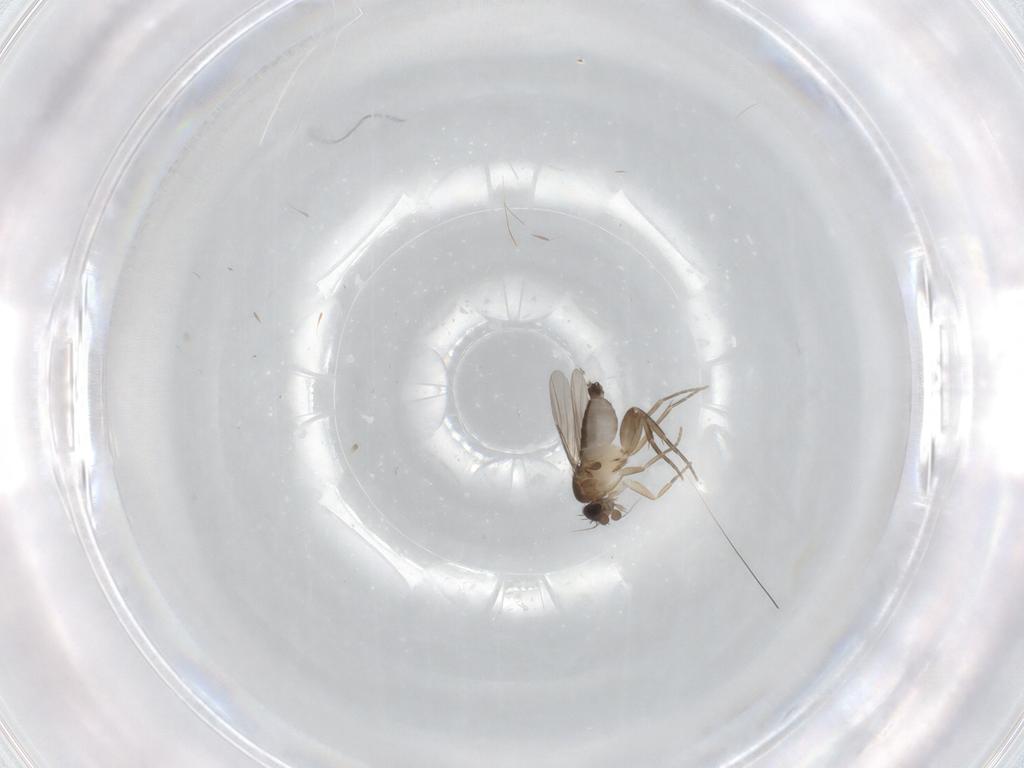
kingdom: Animalia
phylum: Arthropoda
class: Insecta
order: Diptera
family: Phoridae
